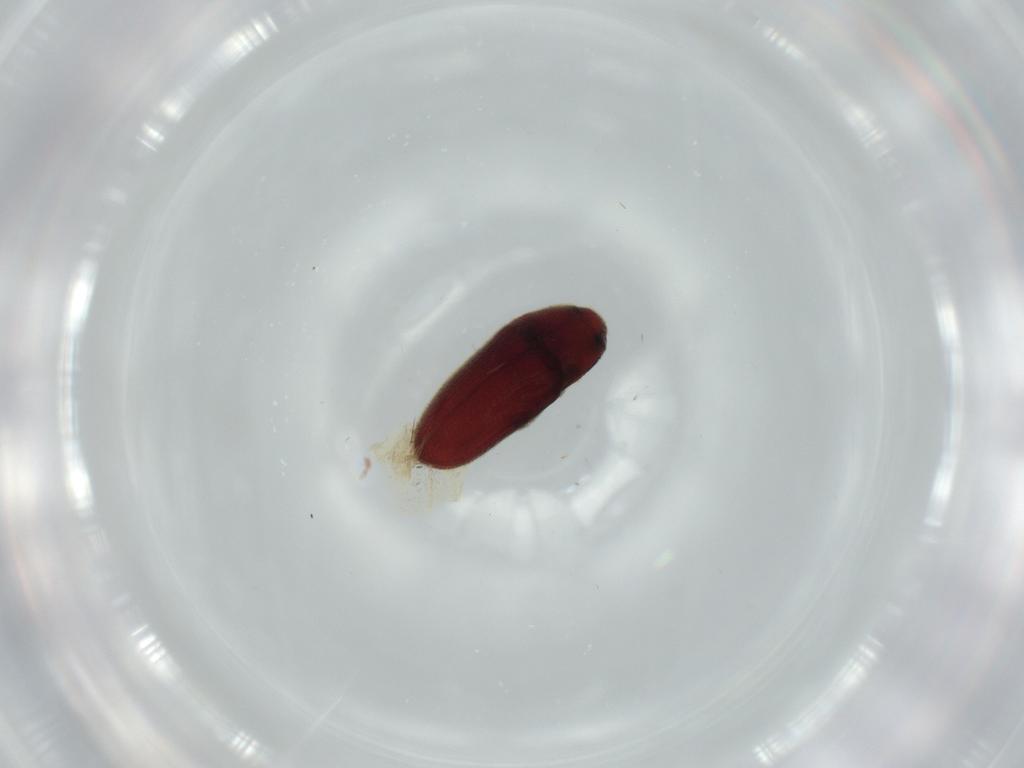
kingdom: Animalia
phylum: Arthropoda
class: Insecta
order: Coleoptera
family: Throscidae
